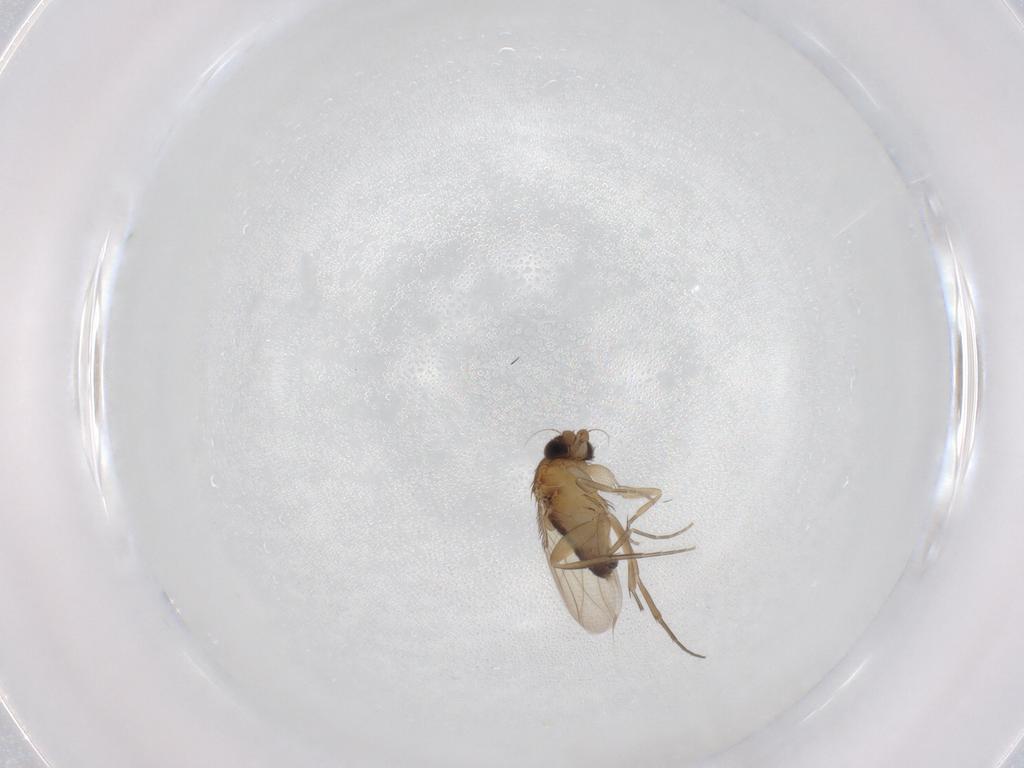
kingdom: Animalia
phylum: Arthropoda
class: Insecta
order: Diptera
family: Phoridae
